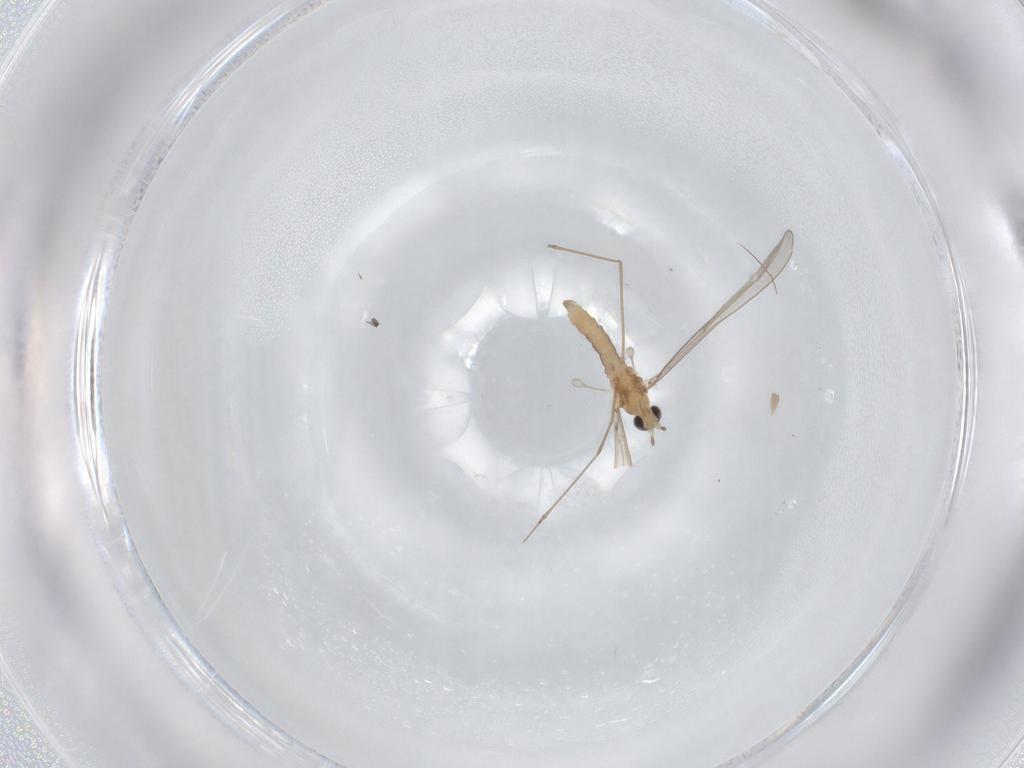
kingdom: Animalia
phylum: Arthropoda
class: Insecta
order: Diptera
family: Cecidomyiidae
